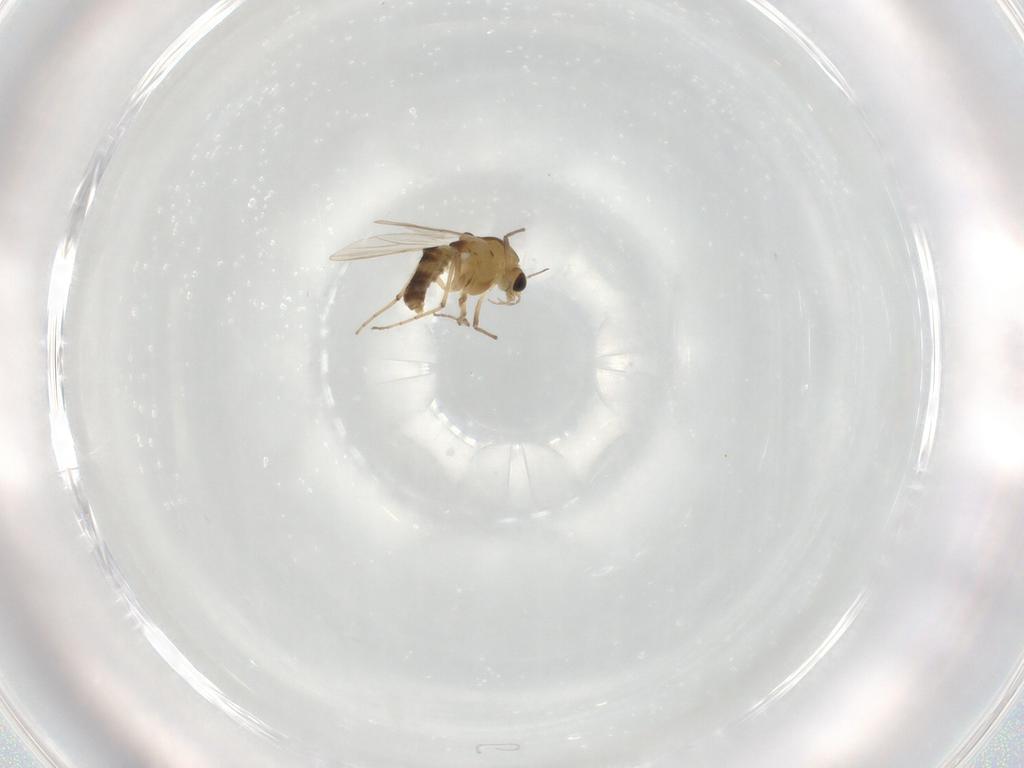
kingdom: Animalia
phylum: Arthropoda
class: Insecta
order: Diptera
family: Chironomidae
